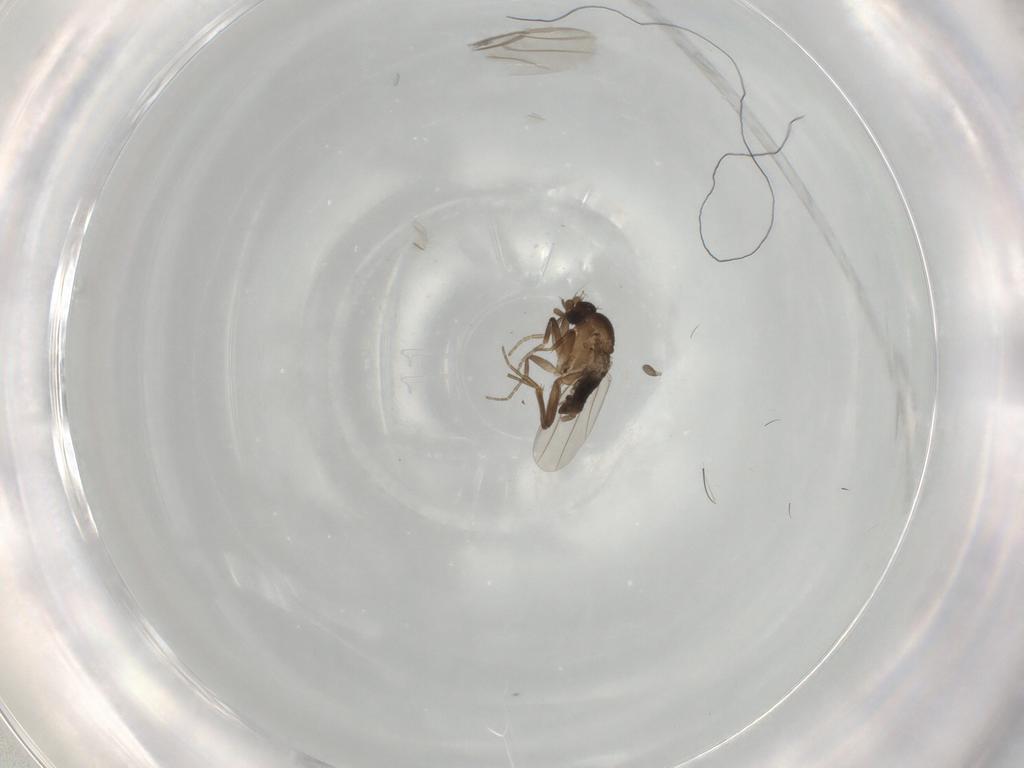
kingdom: Animalia
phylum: Arthropoda
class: Insecta
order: Diptera
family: Phoridae
